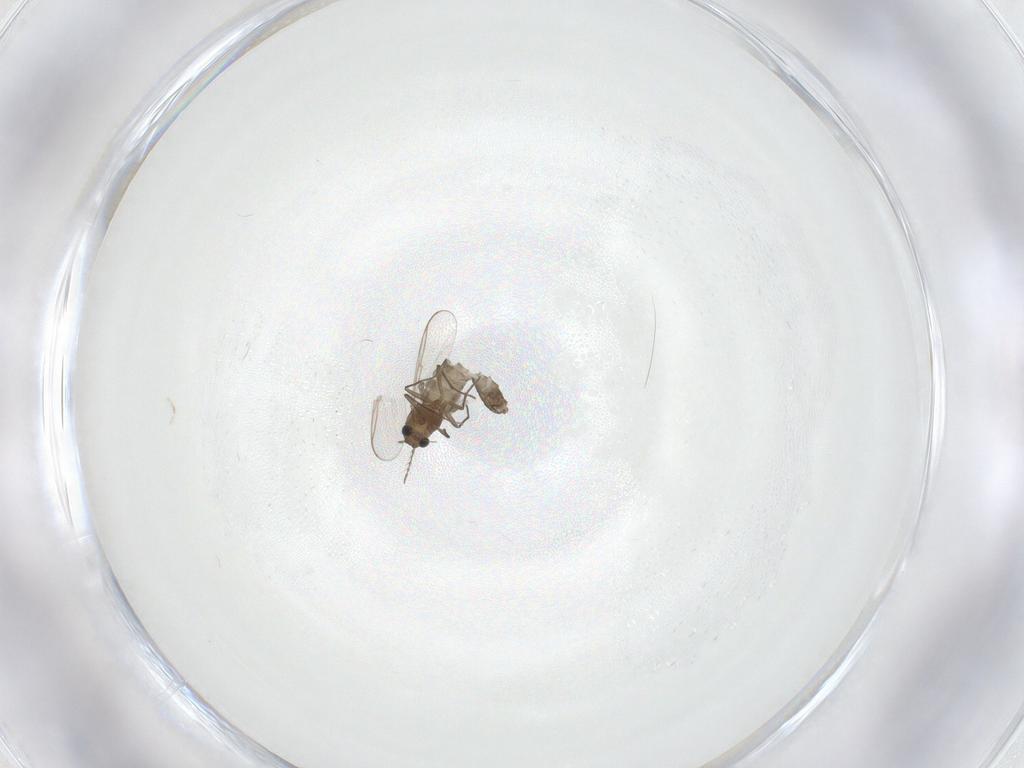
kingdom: Animalia
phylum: Arthropoda
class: Insecta
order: Diptera
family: Chironomidae
